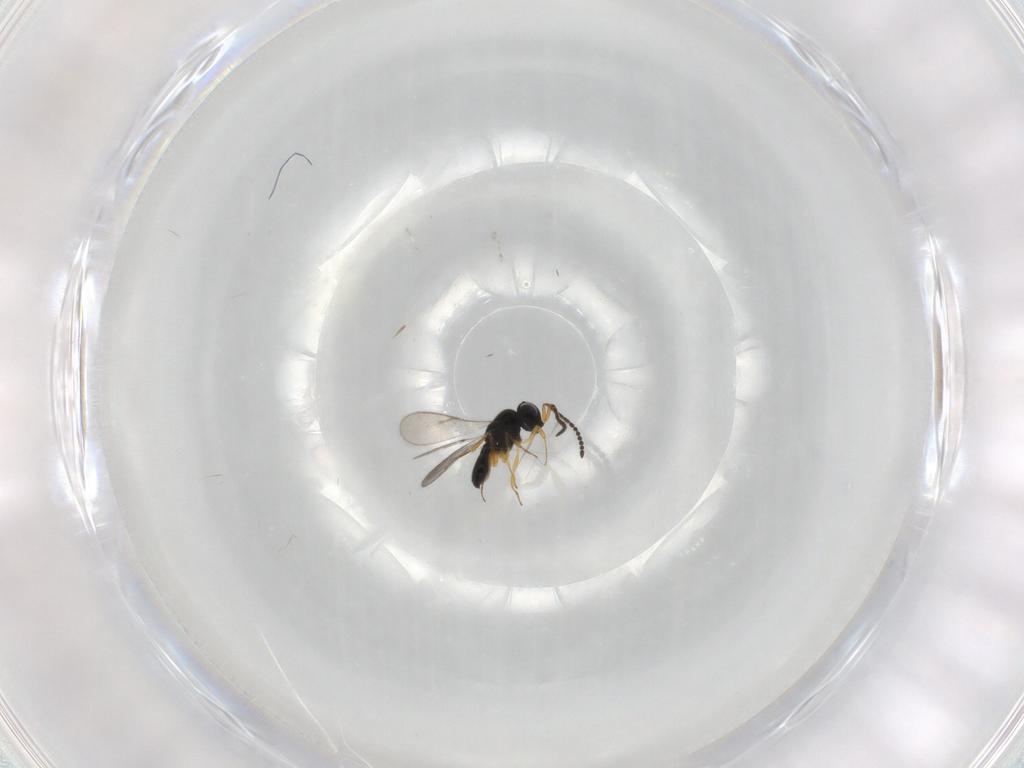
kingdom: Animalia
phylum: Arthropoda
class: Insecta
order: Hymenoptera
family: Scelionidae
